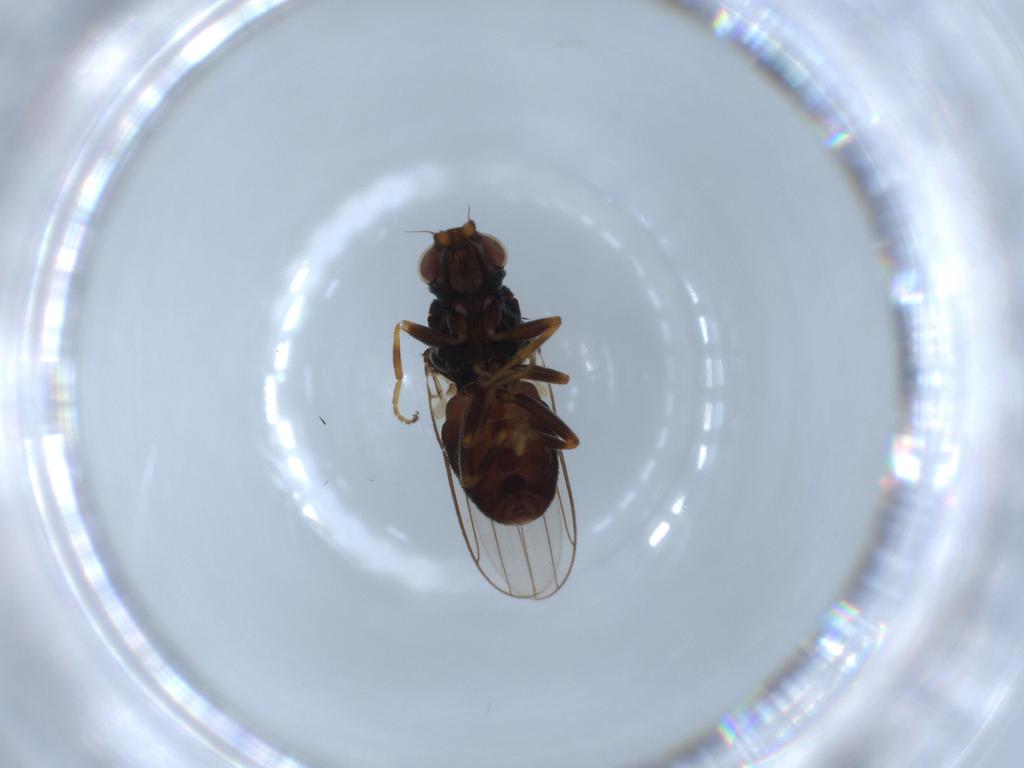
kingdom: Animalia
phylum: Arthropoda
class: Insecta
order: Diptera
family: Chloropidae
